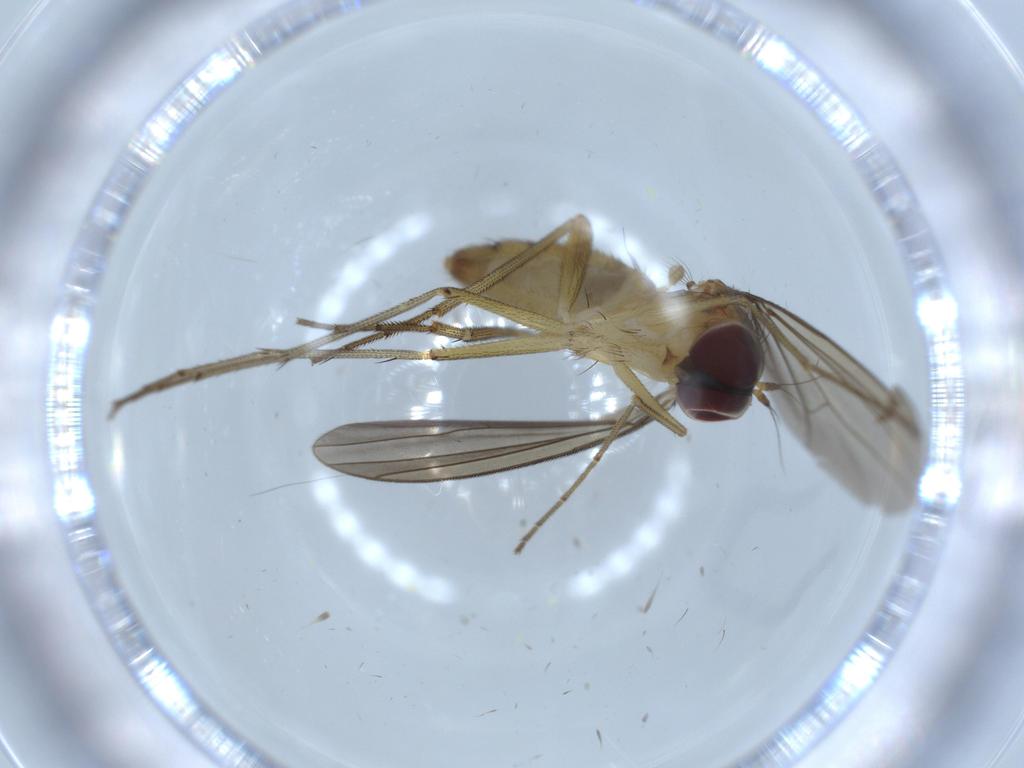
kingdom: Animalia
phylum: Arthropoda
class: Insecta
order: Diptera
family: Dolichopodidae
